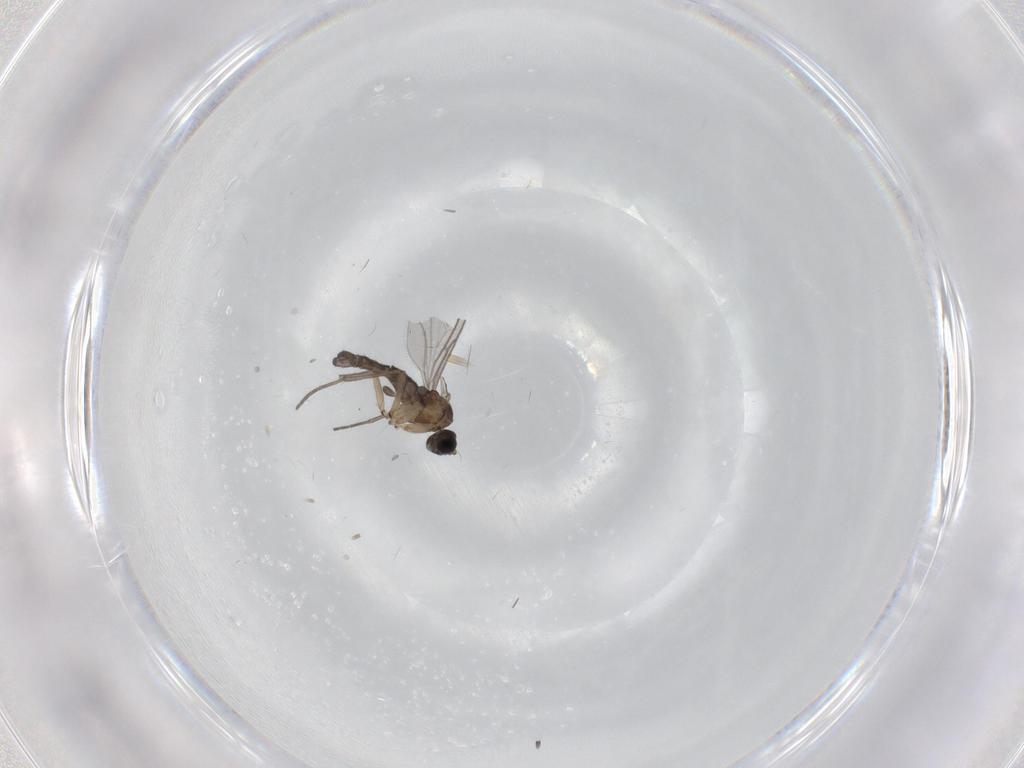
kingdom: Animalia
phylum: Arthropoda
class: Insecta
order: Diptera
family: Sciaridae
